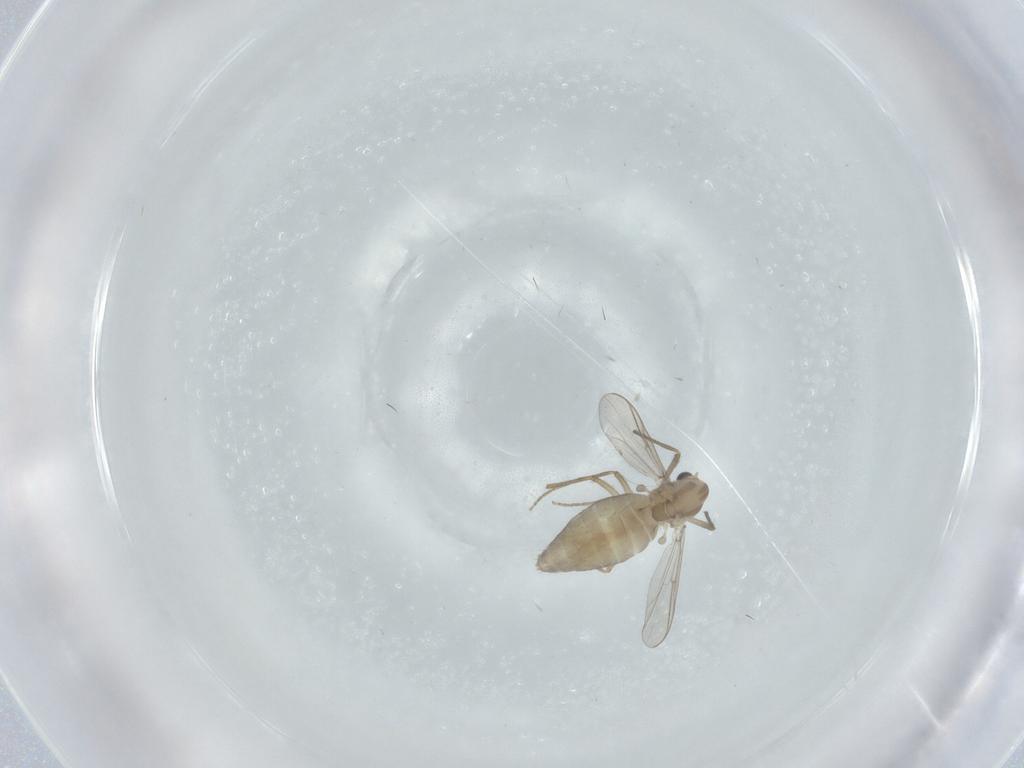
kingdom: Animalia
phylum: Arthropoda
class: Insecta
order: Diptera
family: Chironomidae
